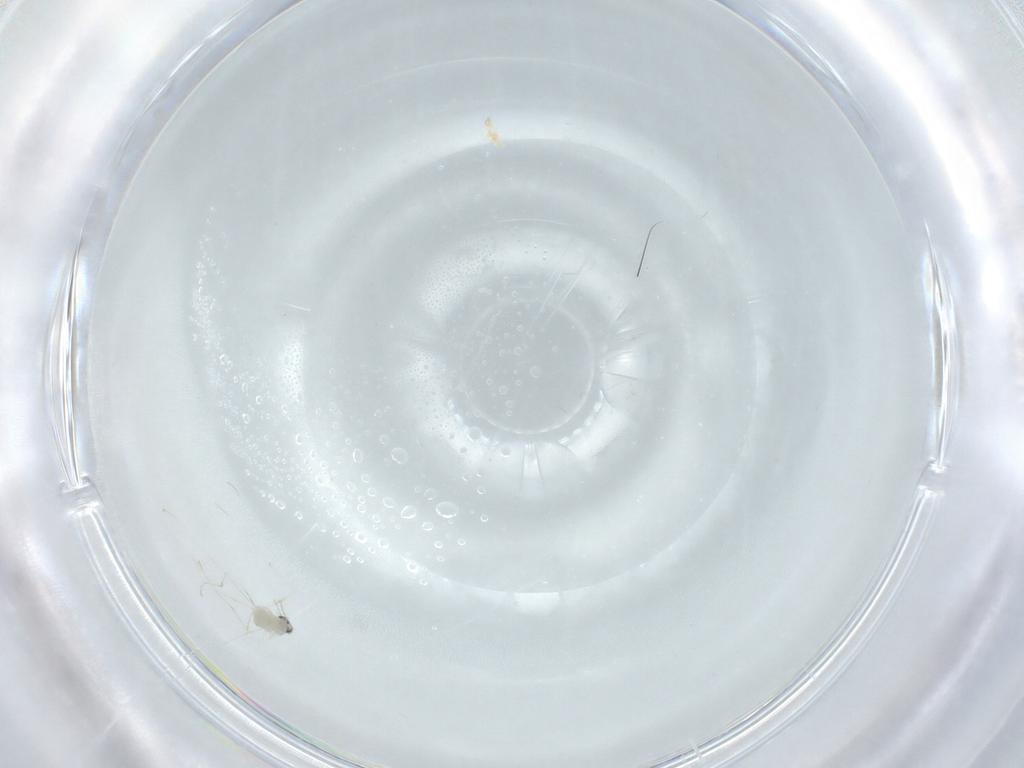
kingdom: Animalia
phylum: Arthropoda
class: Insecta
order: Diptera
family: Cecidomyiidae
